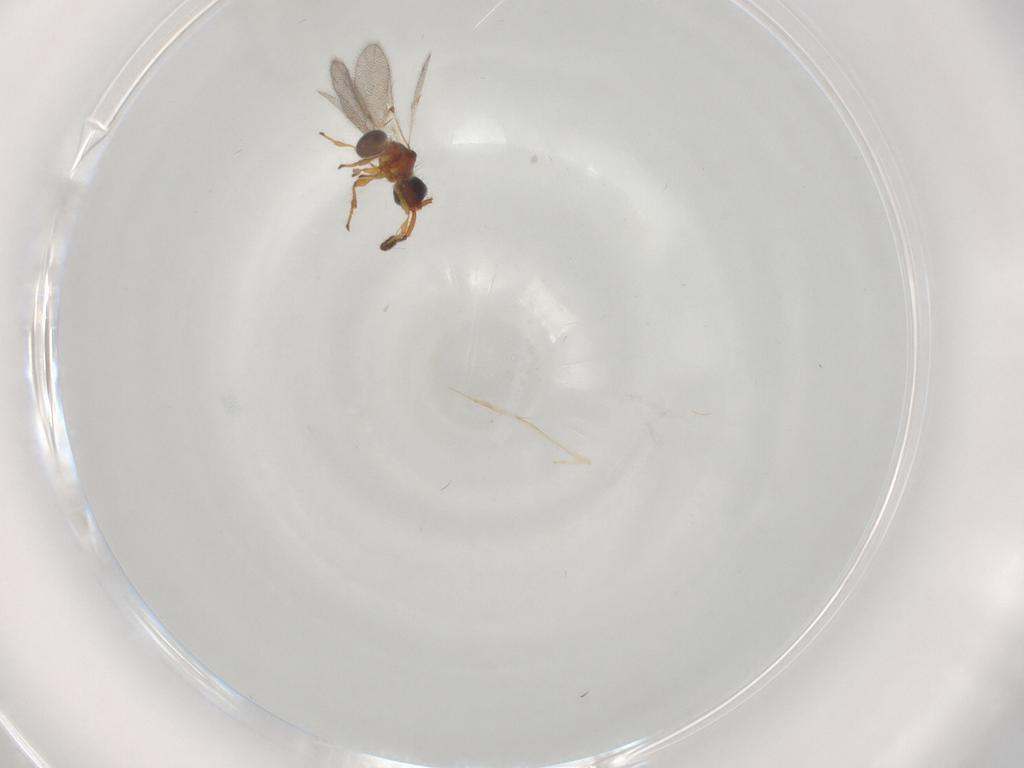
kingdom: Animalia
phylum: Arthropoda
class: Insecta
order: Hymenoptera
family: Diapriidae
